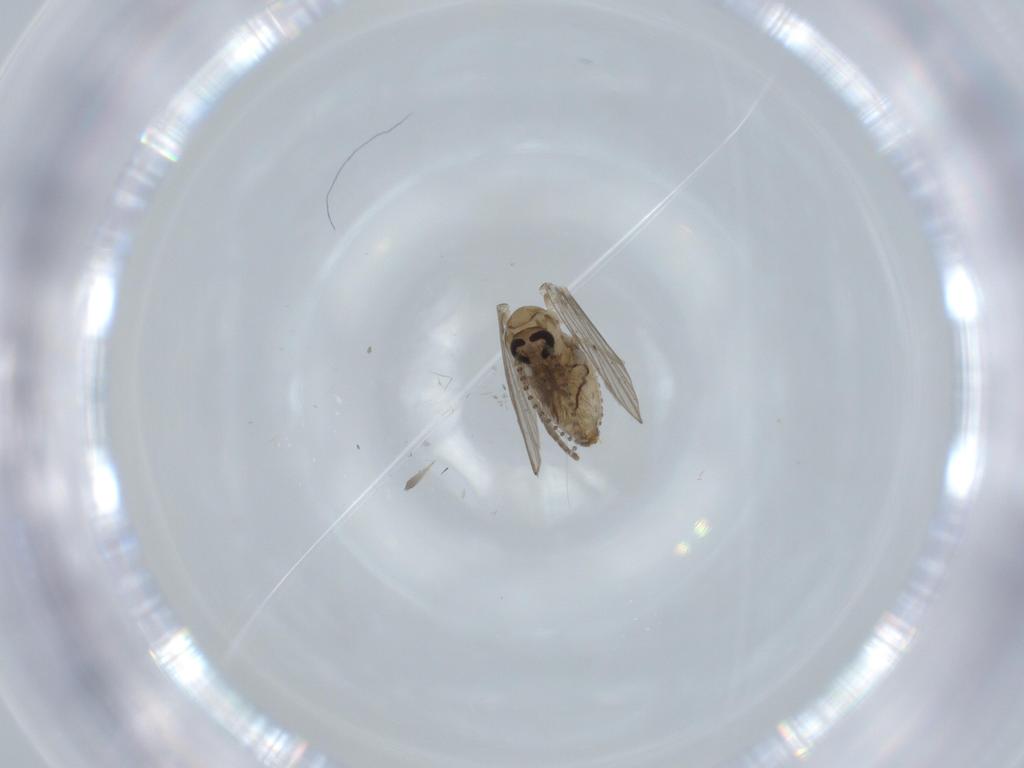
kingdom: Animalia
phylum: Arthropoda
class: Insecta
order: Diptera
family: Psychodidae
